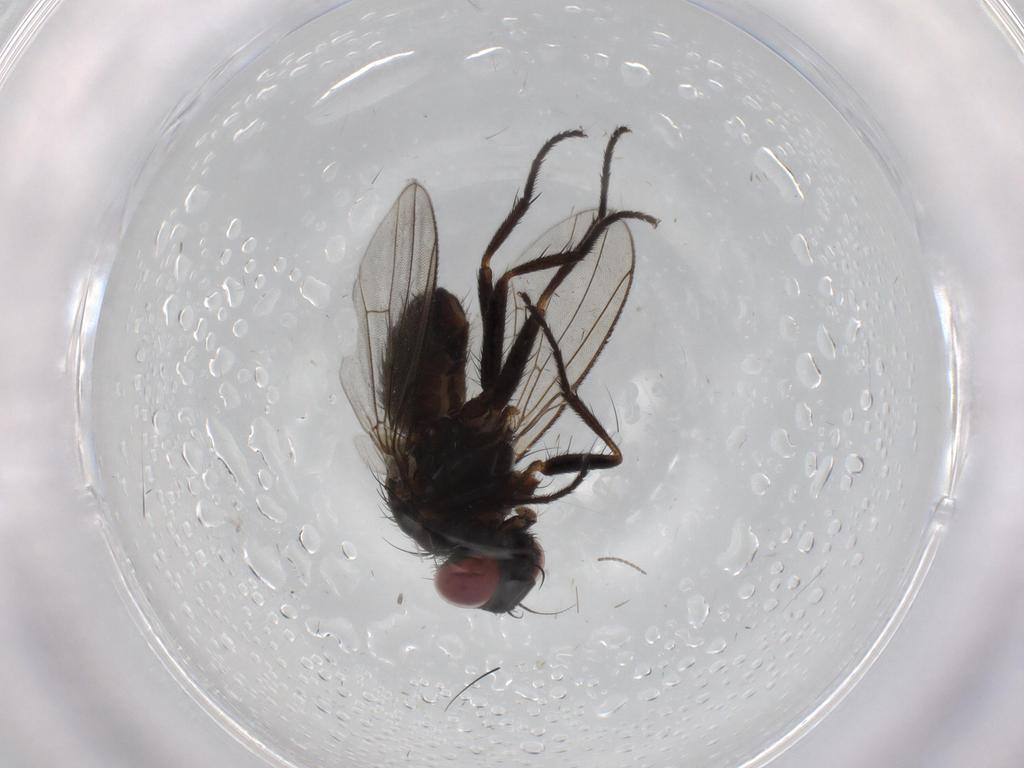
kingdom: Animalia
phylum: Arthropoda
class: Insecta
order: Diptera
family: Muscidae
